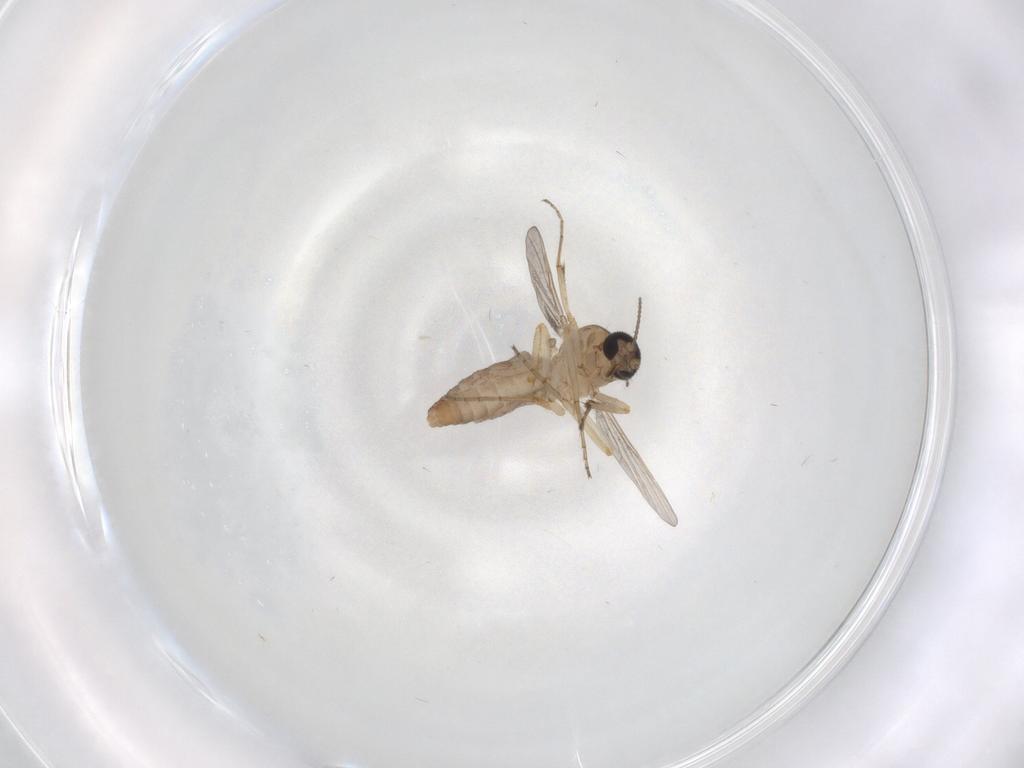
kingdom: Animalia
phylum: Arthropoda
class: Insecta
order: Diptera
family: Ceratopogonidae
